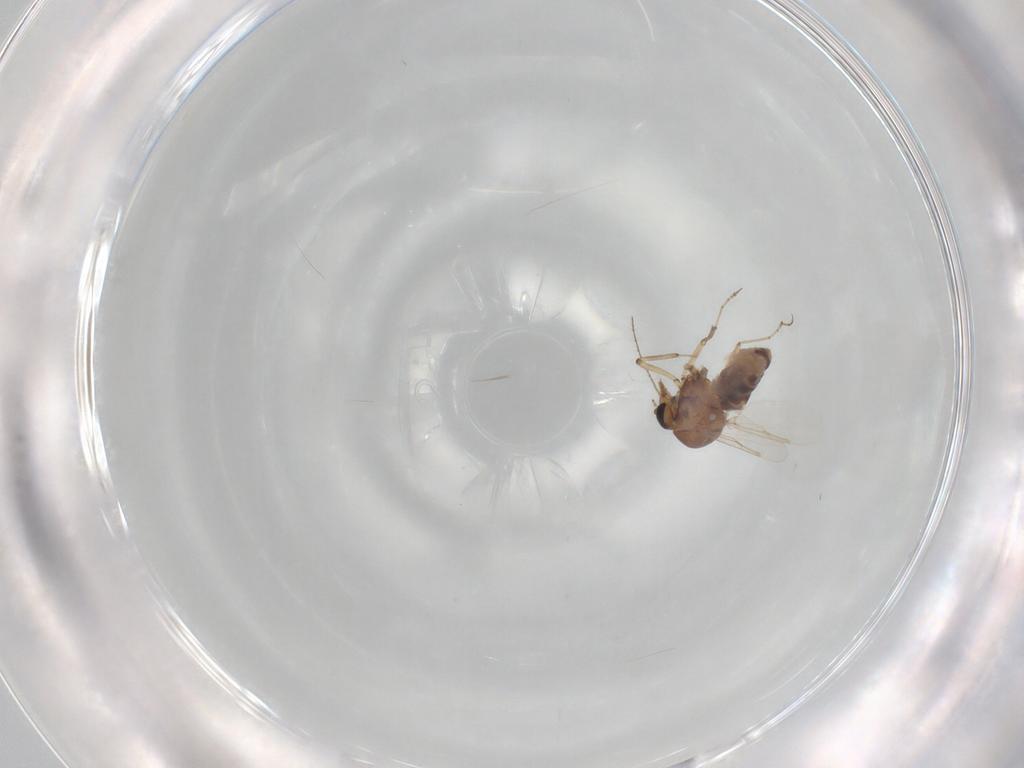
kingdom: Animalia
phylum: Arthropoda
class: Insecta
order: Diptera
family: Ceratopogonidae
